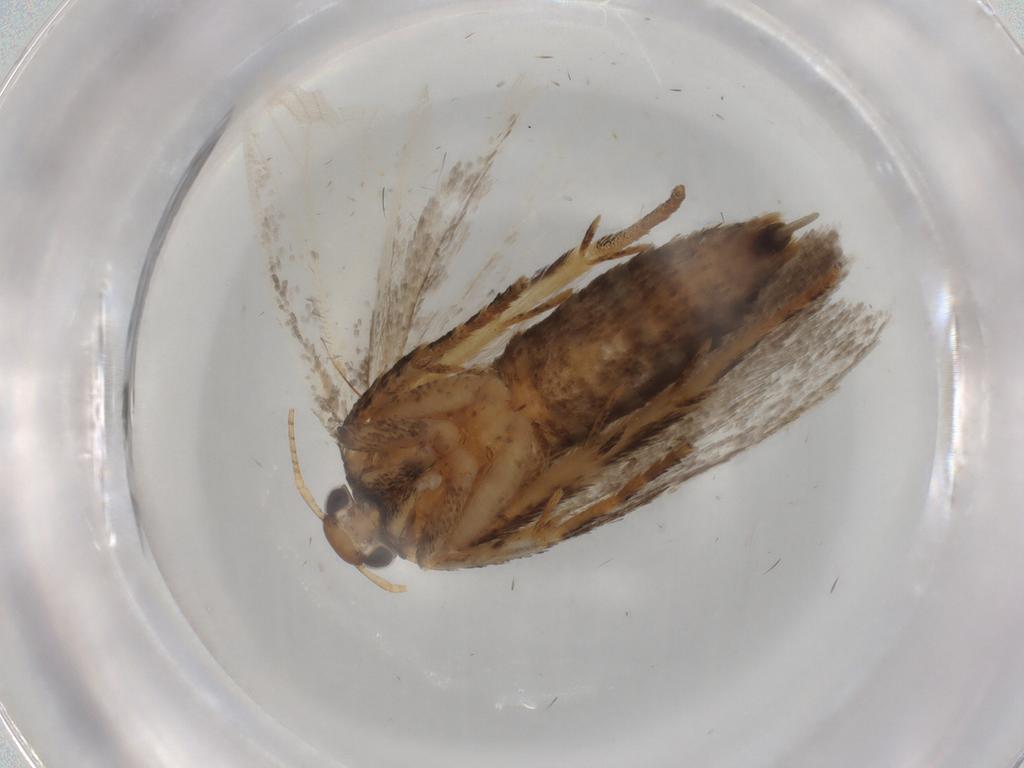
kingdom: Animalia
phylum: Arthropoda
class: Insecta
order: Lepidoptera
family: Gelechiidae
